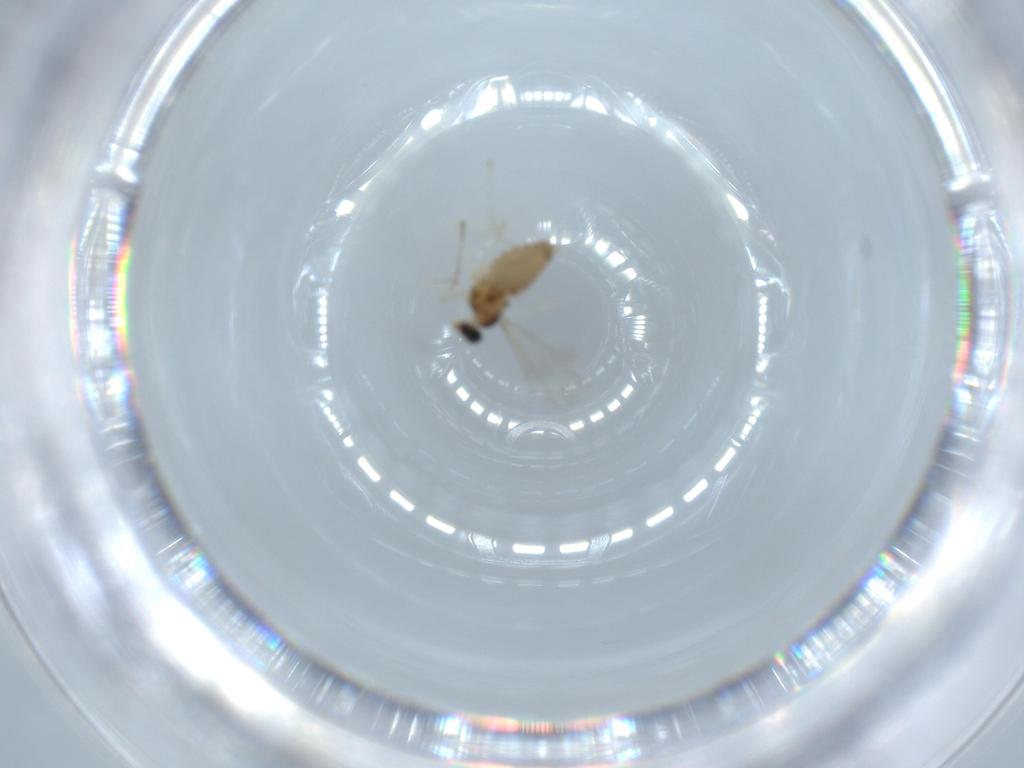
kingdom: Animalia
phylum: Arthropoda
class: Insecta
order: Diptera
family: Cecidomyiidae
